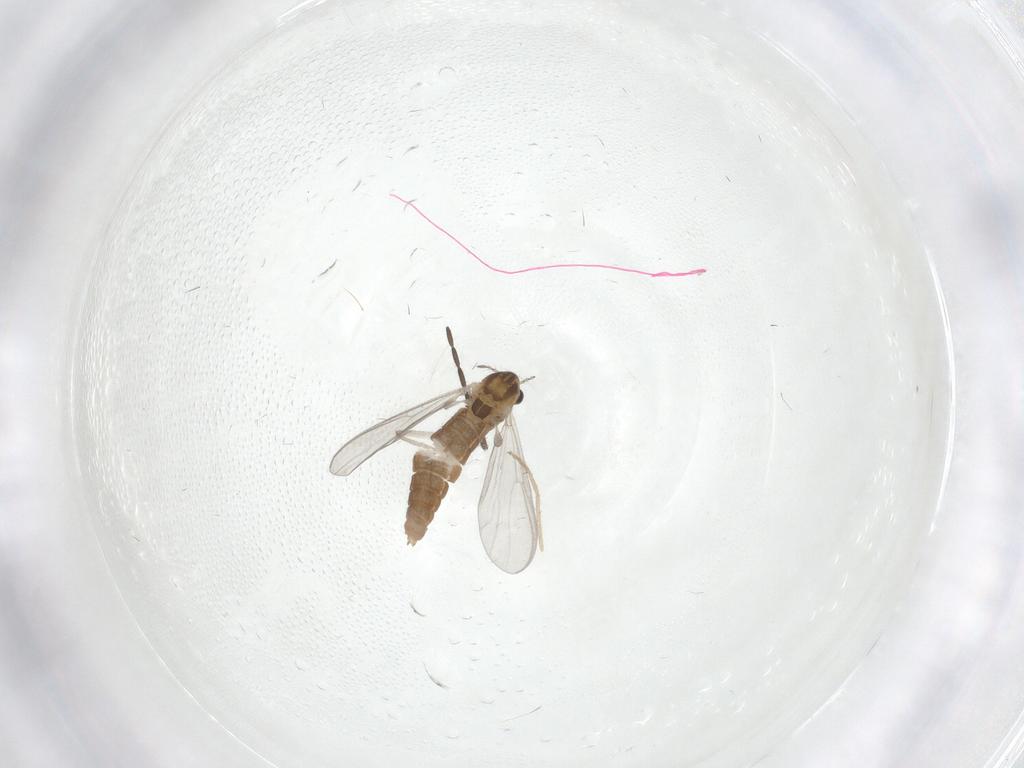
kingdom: Animalia
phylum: Arthropoda
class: Insecta
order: Diptera
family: Chironomidae
